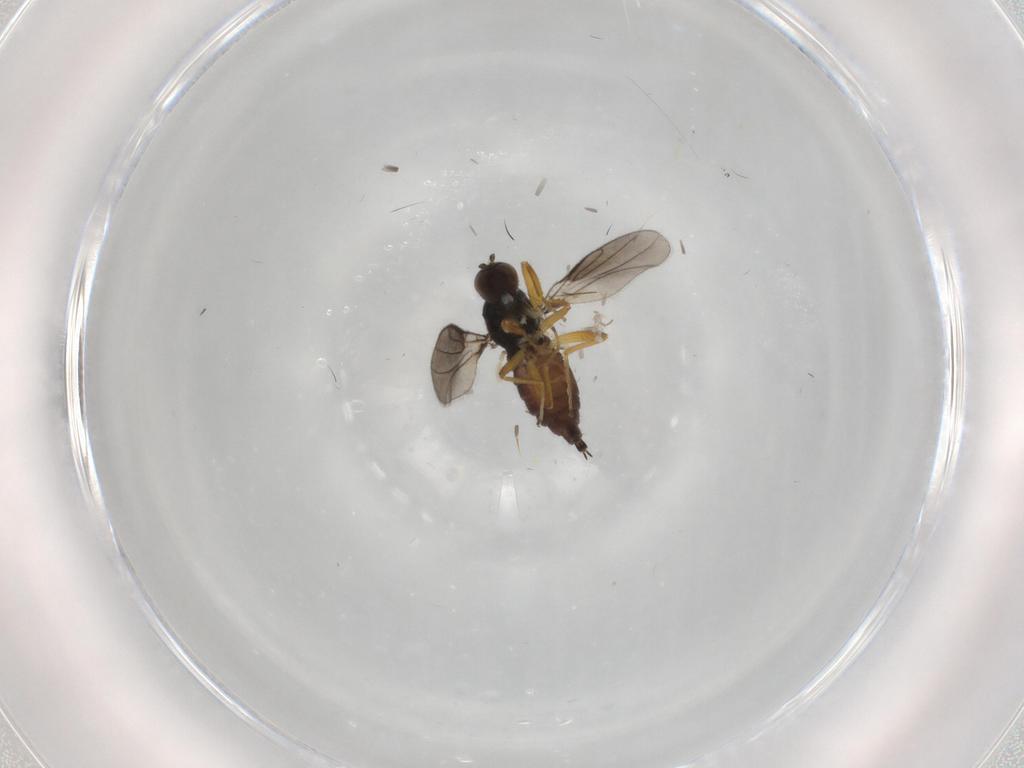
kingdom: Animalia
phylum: Arthropoda
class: Insecta
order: Diptera
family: Hybotidae
